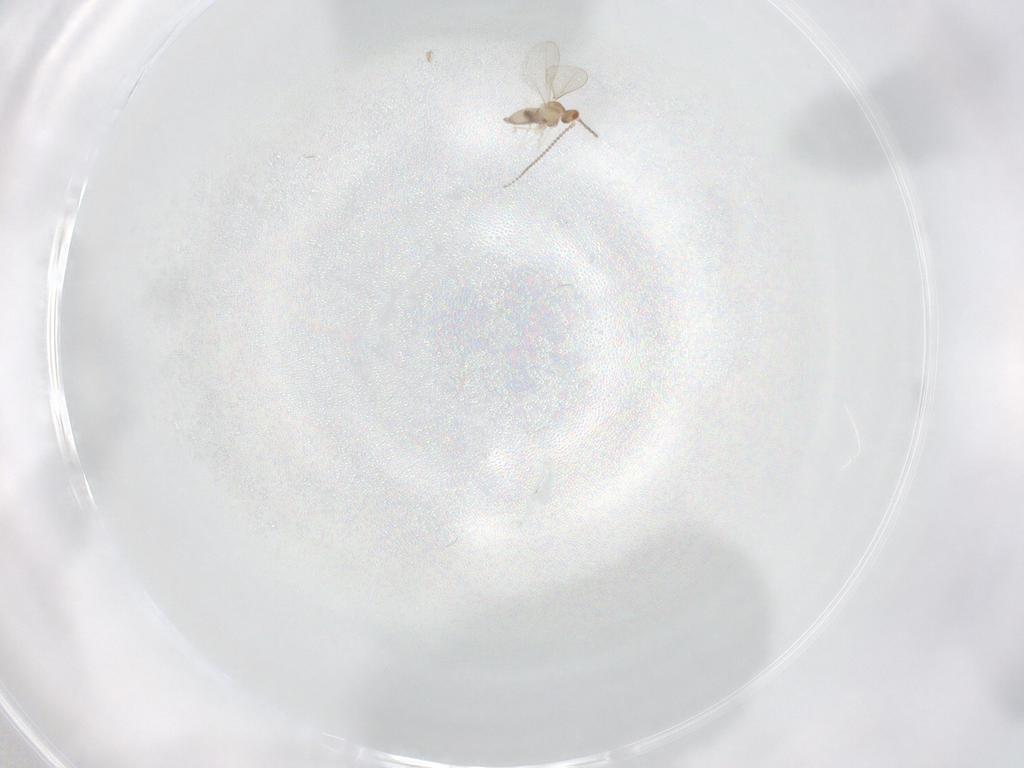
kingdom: Animalia
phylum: Arthropoda
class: Insecta
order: Diptera
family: Cecidomyiidae
